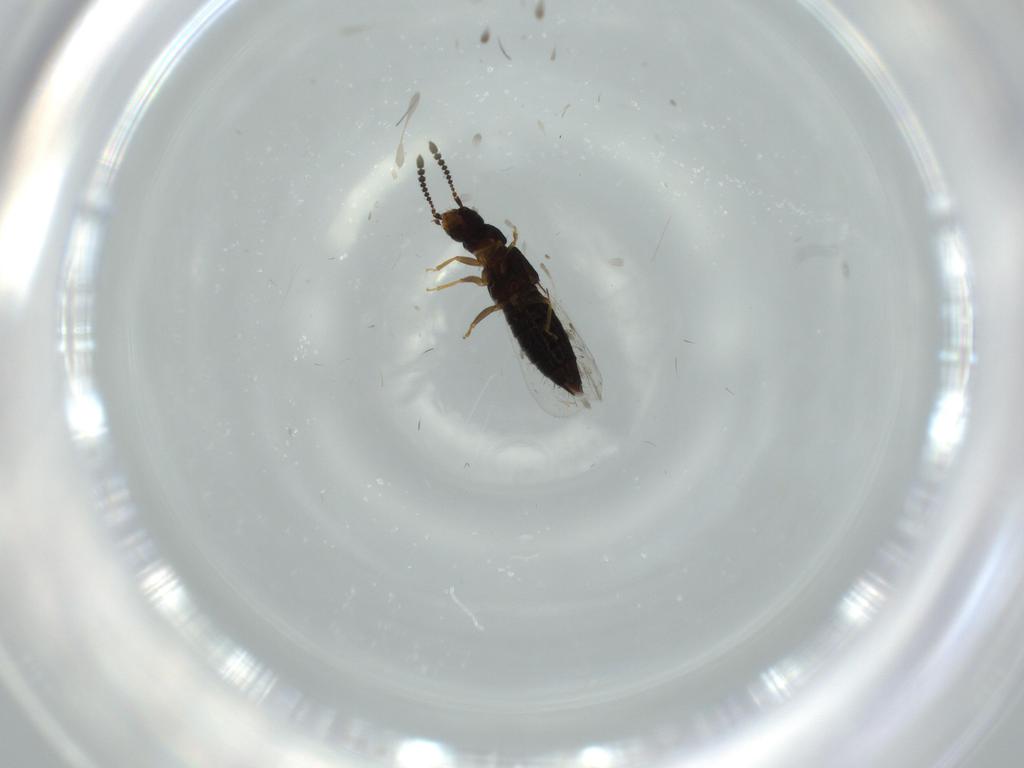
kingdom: Animalia
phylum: Arthropoda
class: Insecta
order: Coleoptera
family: Staphylinidae
